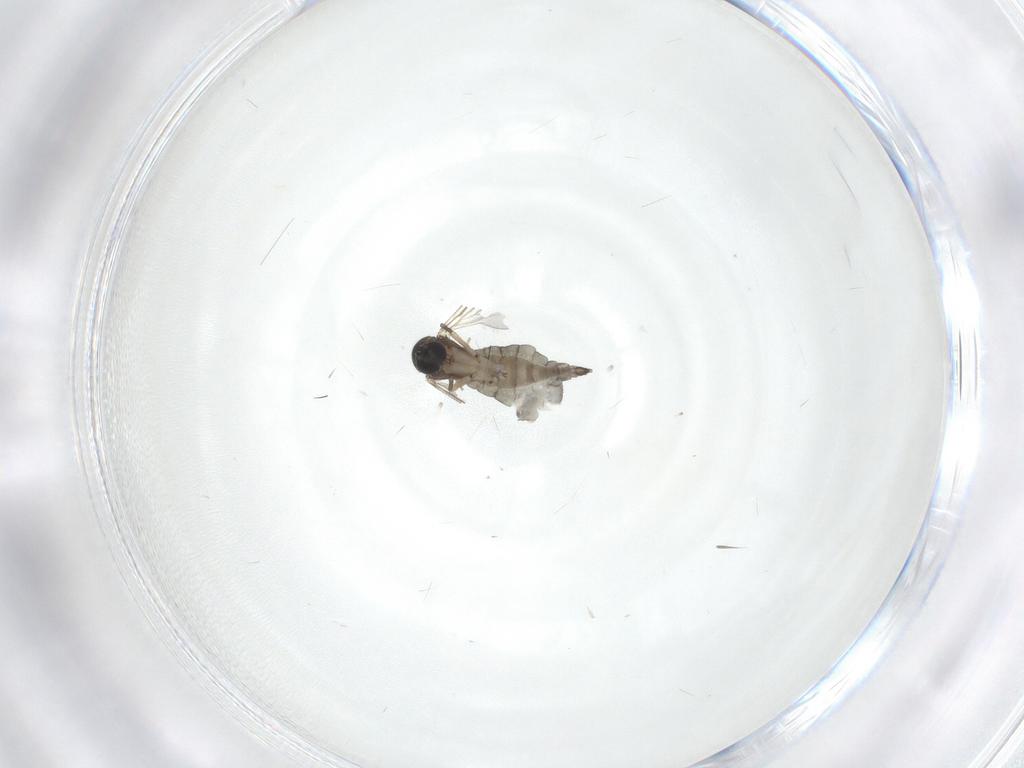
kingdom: Animalia
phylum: Arthropoda
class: Insecta
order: Diptera
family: Sciaridae
